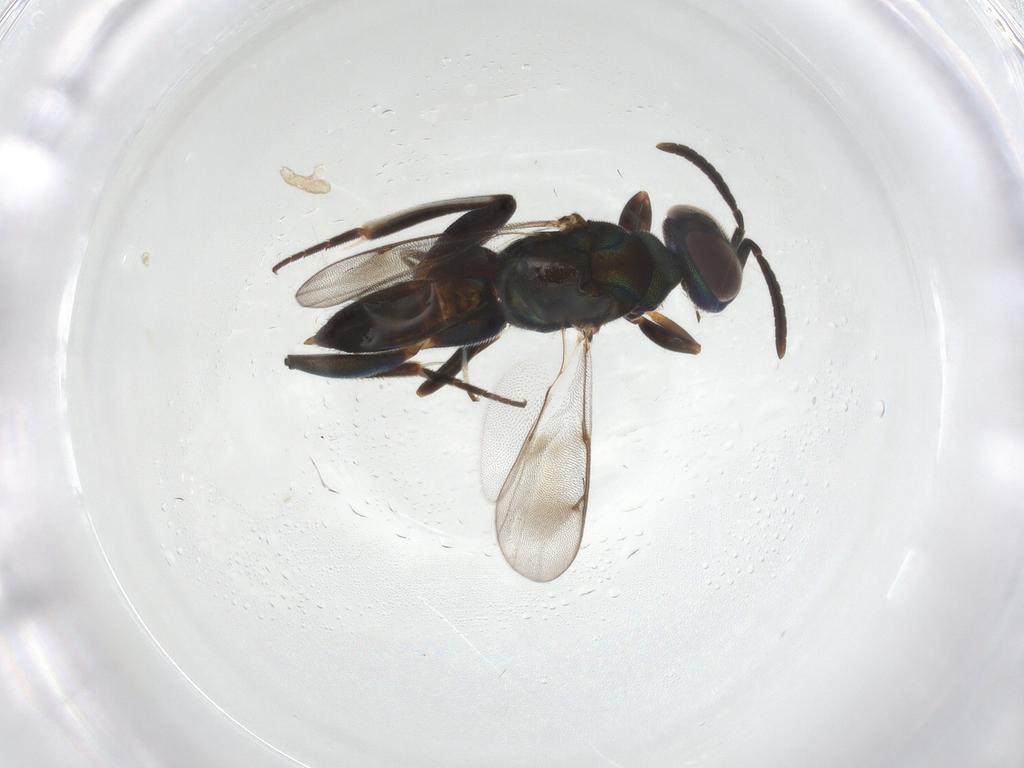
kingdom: Animalia
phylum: Arthropoda
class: Insecta
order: Hymenoptera
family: Eupelmidae
